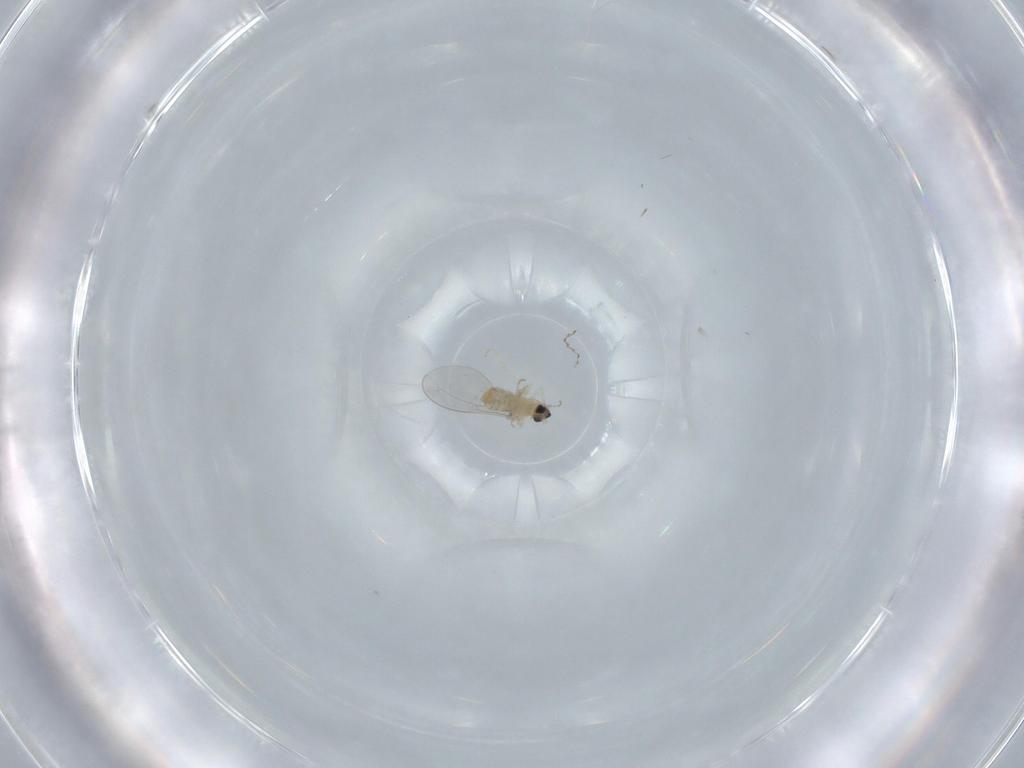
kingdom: Animalia
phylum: Arthropoda
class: Insecta
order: Diptera
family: Cecidomyiidae
